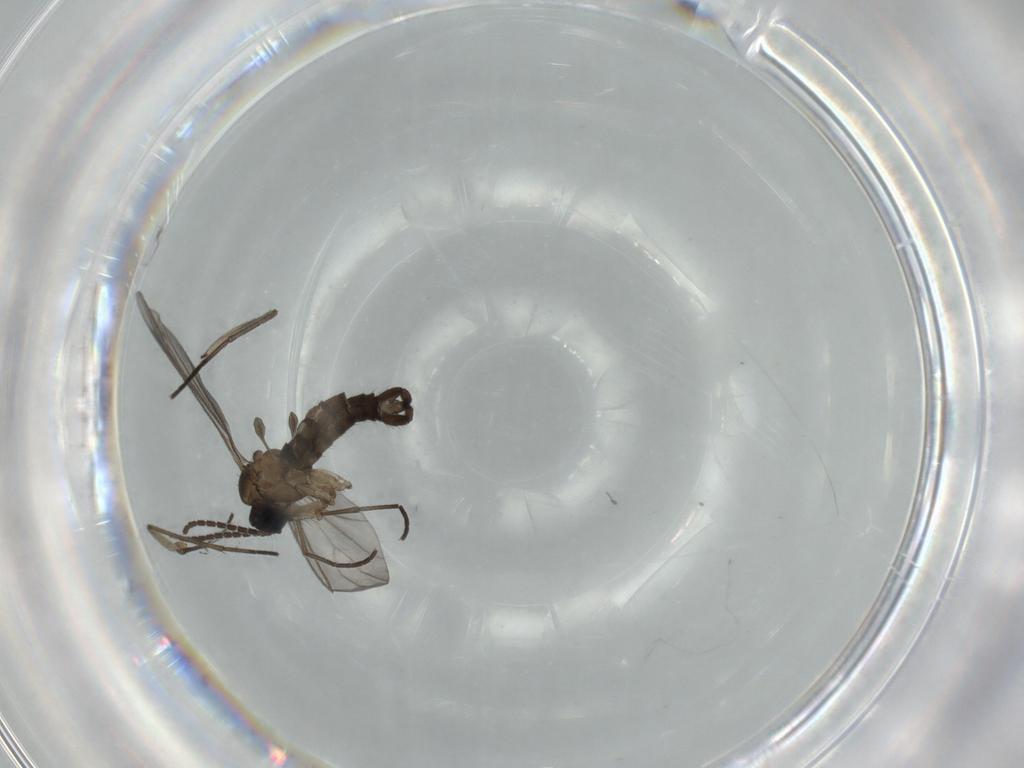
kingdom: Animalia
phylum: Arthropoda
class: Insecta
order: Diptera
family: Sciaridae
